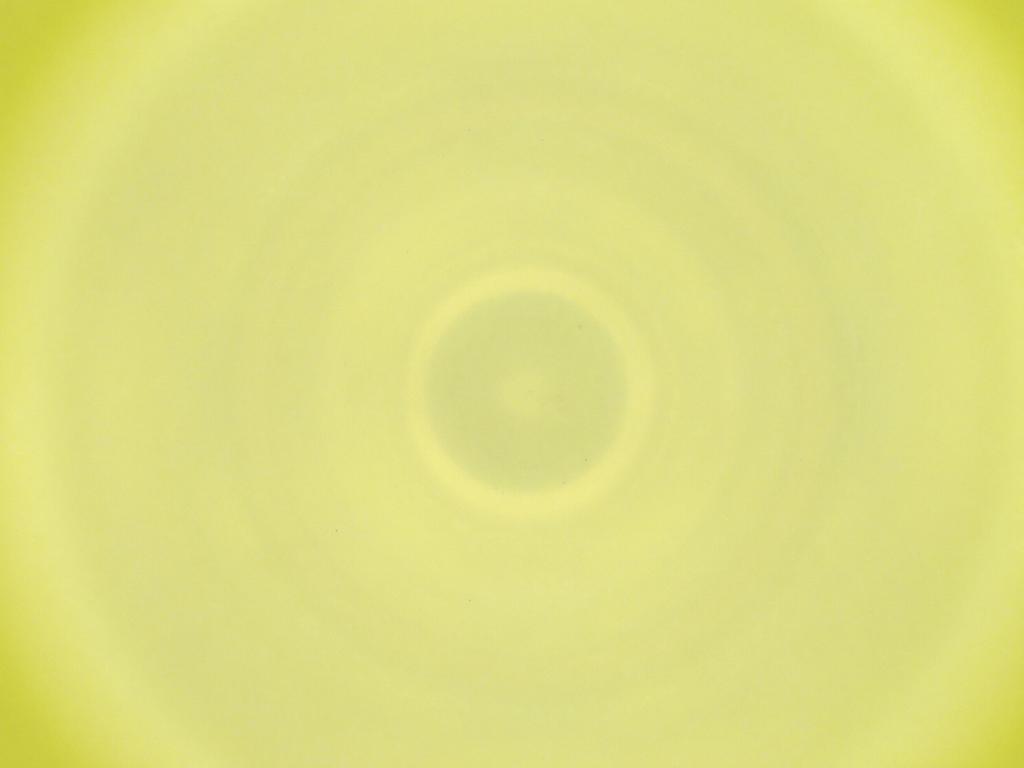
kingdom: Animalia
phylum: Arthropoda
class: Insecta
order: Diptera
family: Cecidomyiidae
